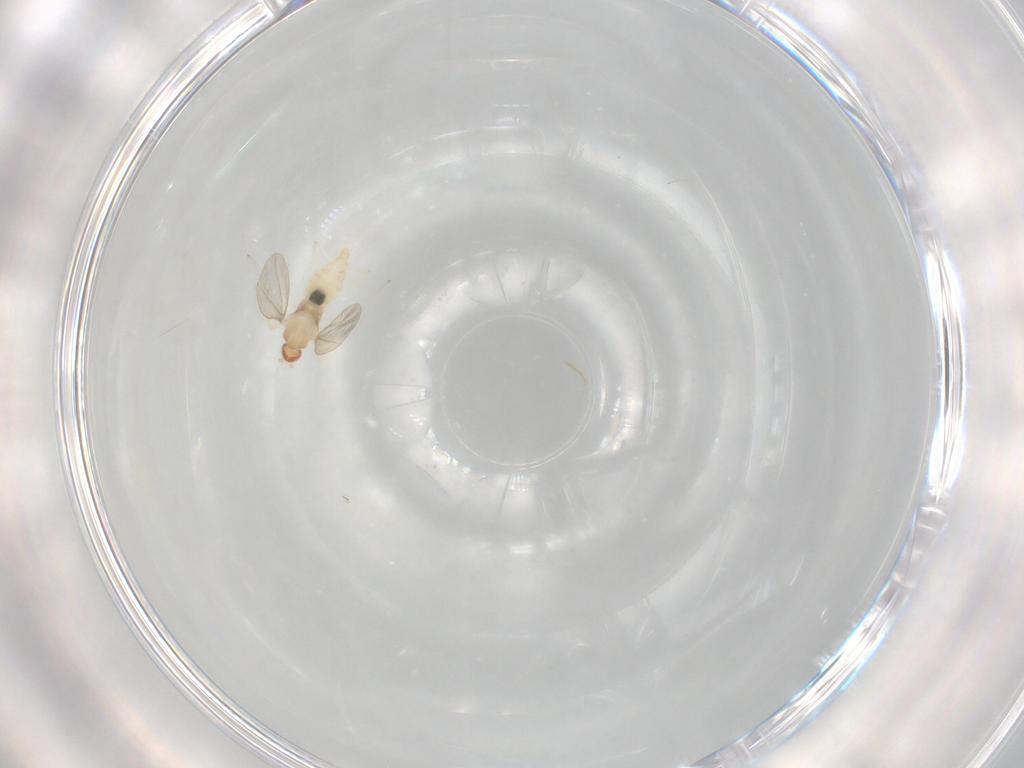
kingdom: Animalia
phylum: Arthropoda
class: Insecta
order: Diptera
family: Cecidomyiidae
